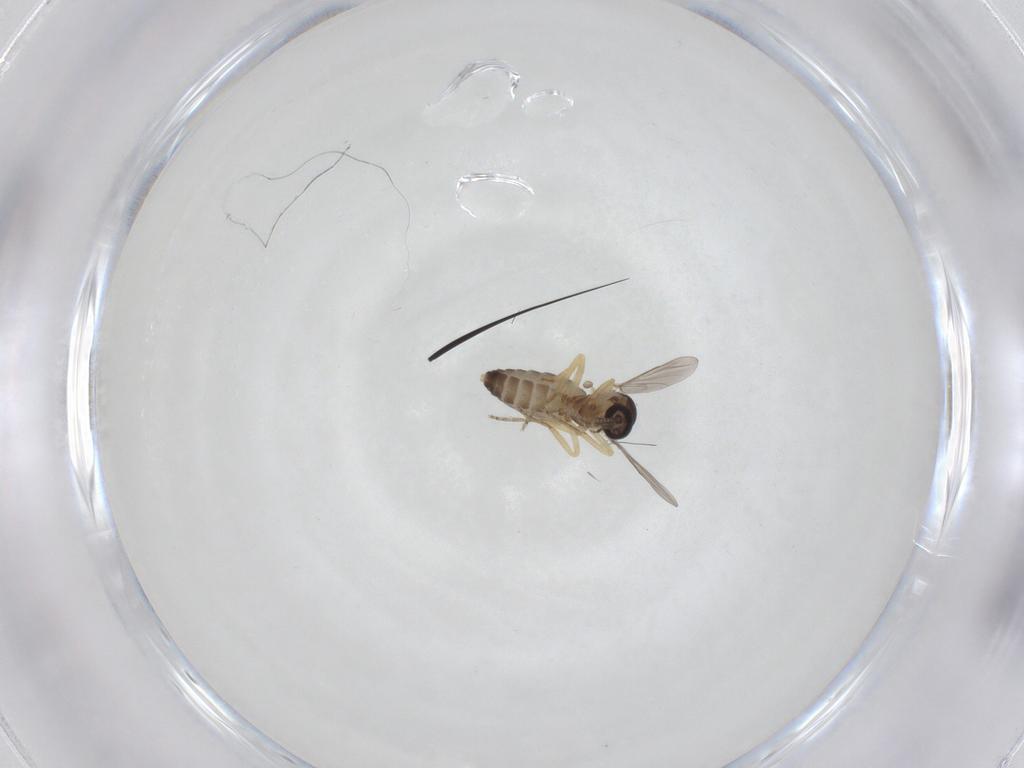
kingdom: Animalia
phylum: Arthropoda
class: Insecta
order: Diptera
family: Ceratopogonidae
